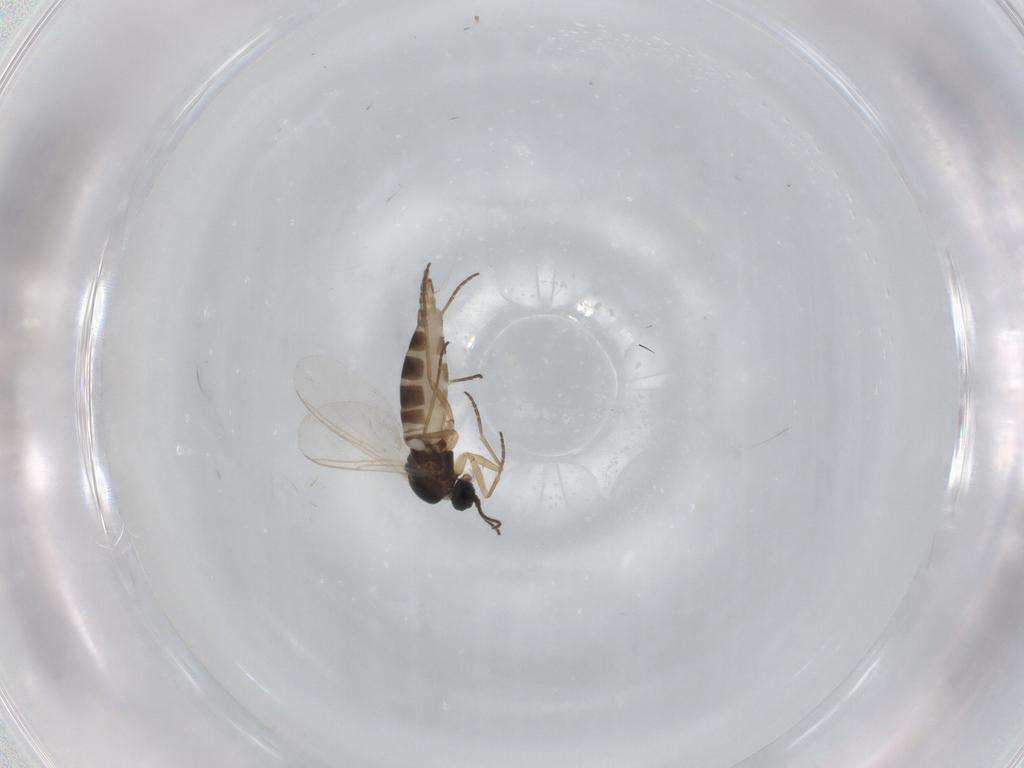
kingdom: Animalia
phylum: Arthropoda
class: Insecta
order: Diptera
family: Sciaridae
